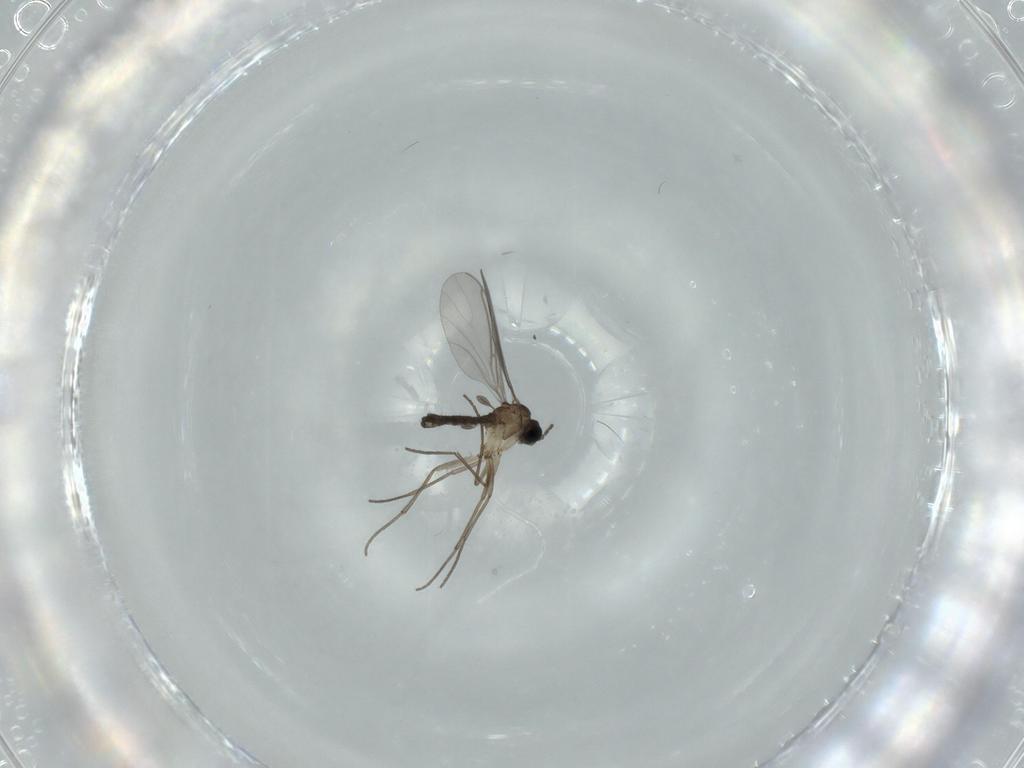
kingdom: Animalia
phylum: Arthropoda
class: Insecta
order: Diptera
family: Sciaridae
